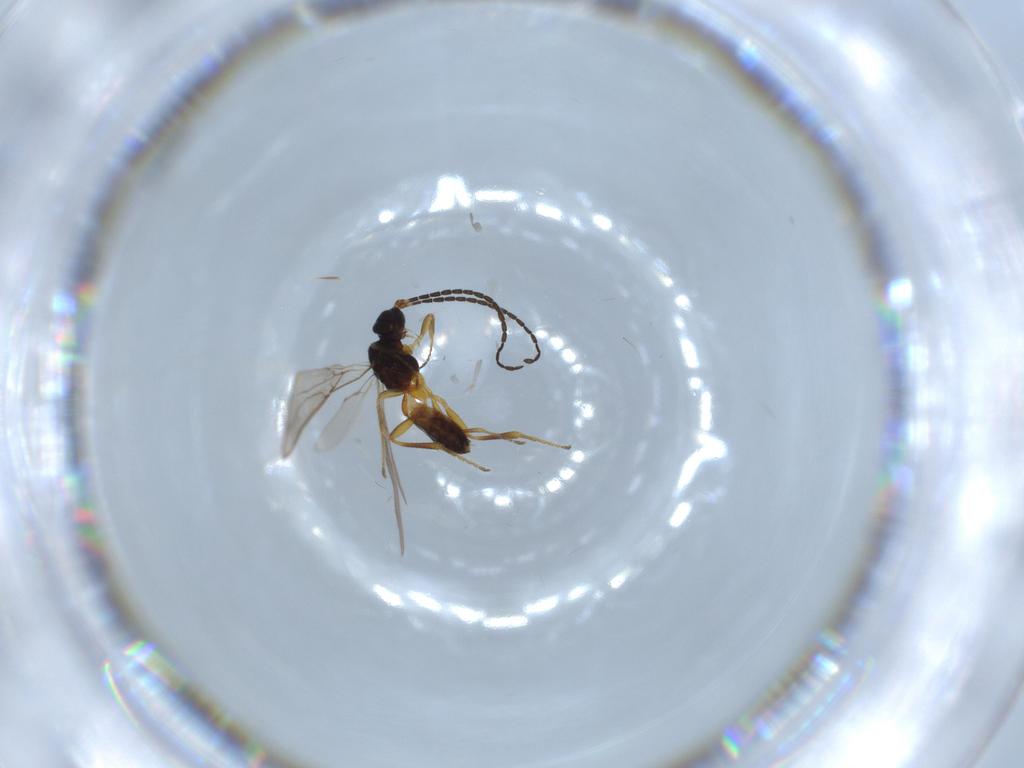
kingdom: Animalia
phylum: Arthropoda
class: Insecta
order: Hymenoptera
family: Braconidae
